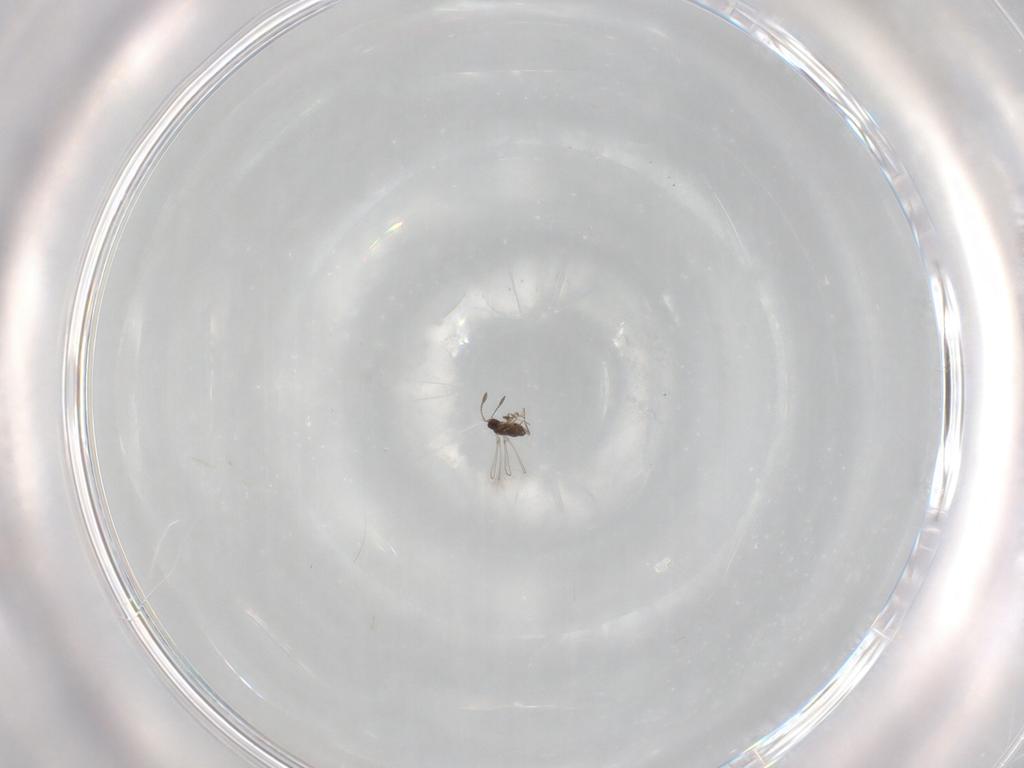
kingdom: Animalia
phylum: Arthropoda
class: Insecta
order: Hymenoptera
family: Mymaridae
